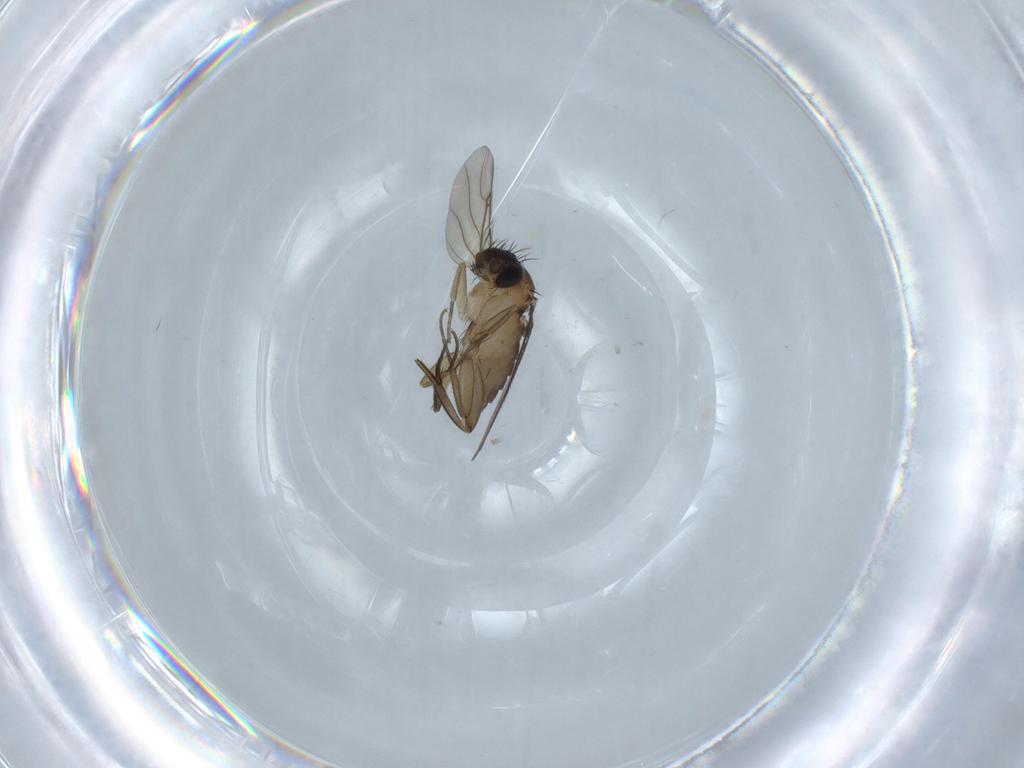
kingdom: Animalia
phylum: Arthropoda
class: Insecta
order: Diptera
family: Phoridae
